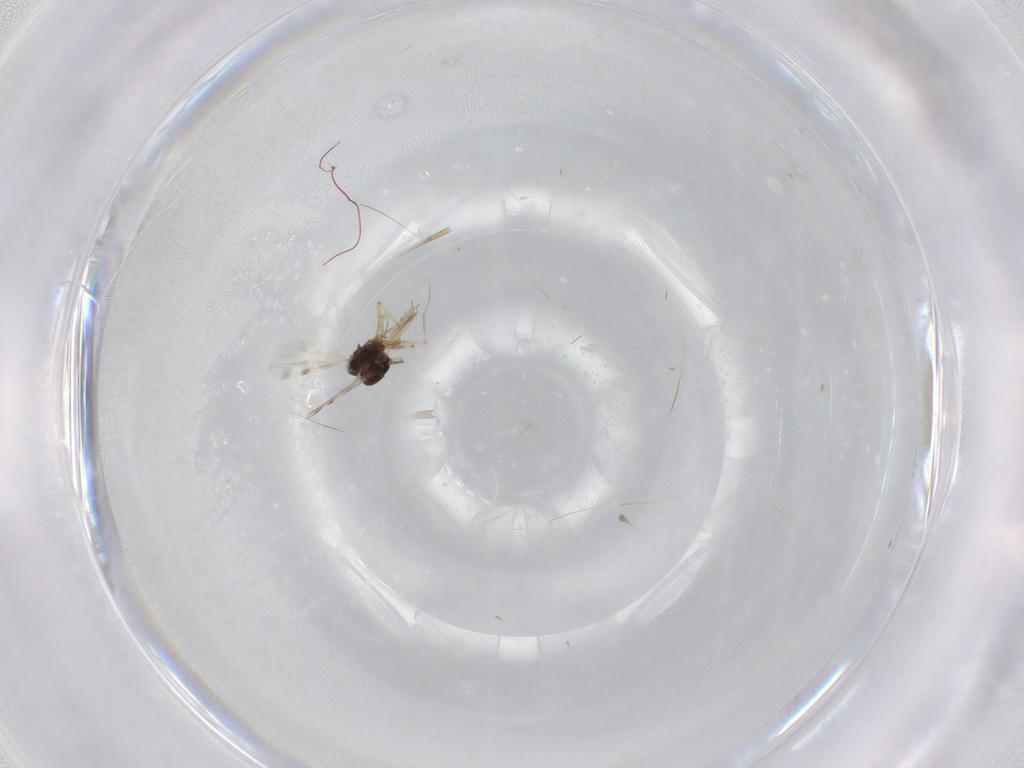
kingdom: Animalia
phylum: Arthropoda
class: Insecta
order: Diptera
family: Ceratopogonidae
